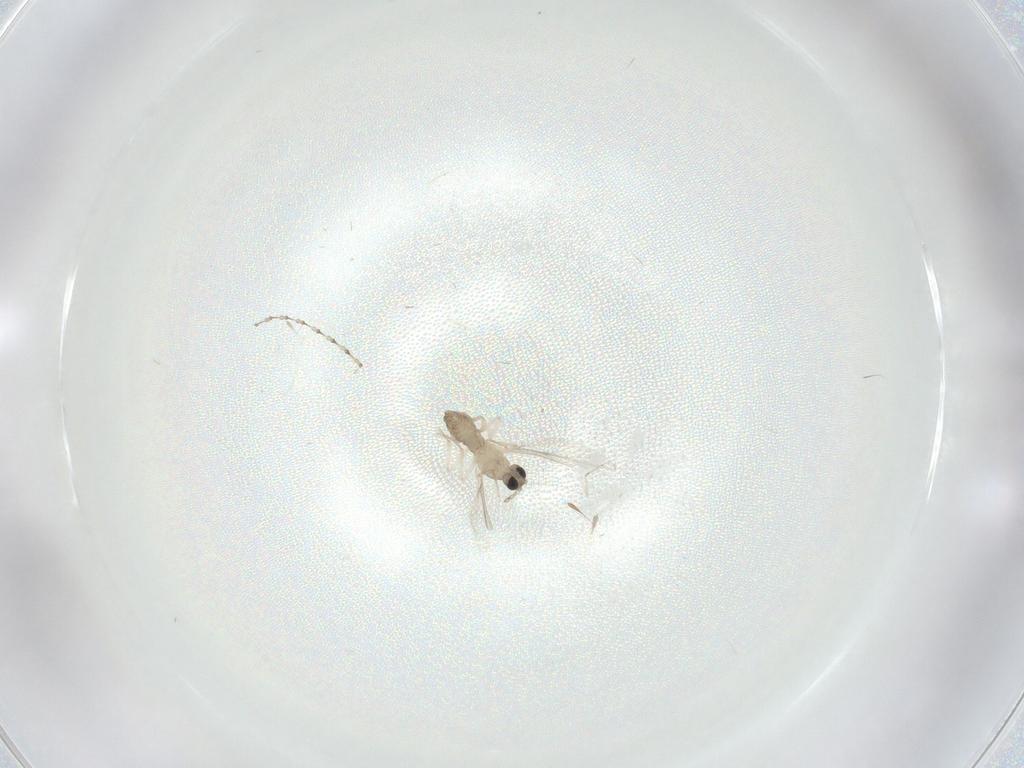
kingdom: Animalia
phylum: Arthropoda
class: Insecta
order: Diptera
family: Cecidomyiidae
